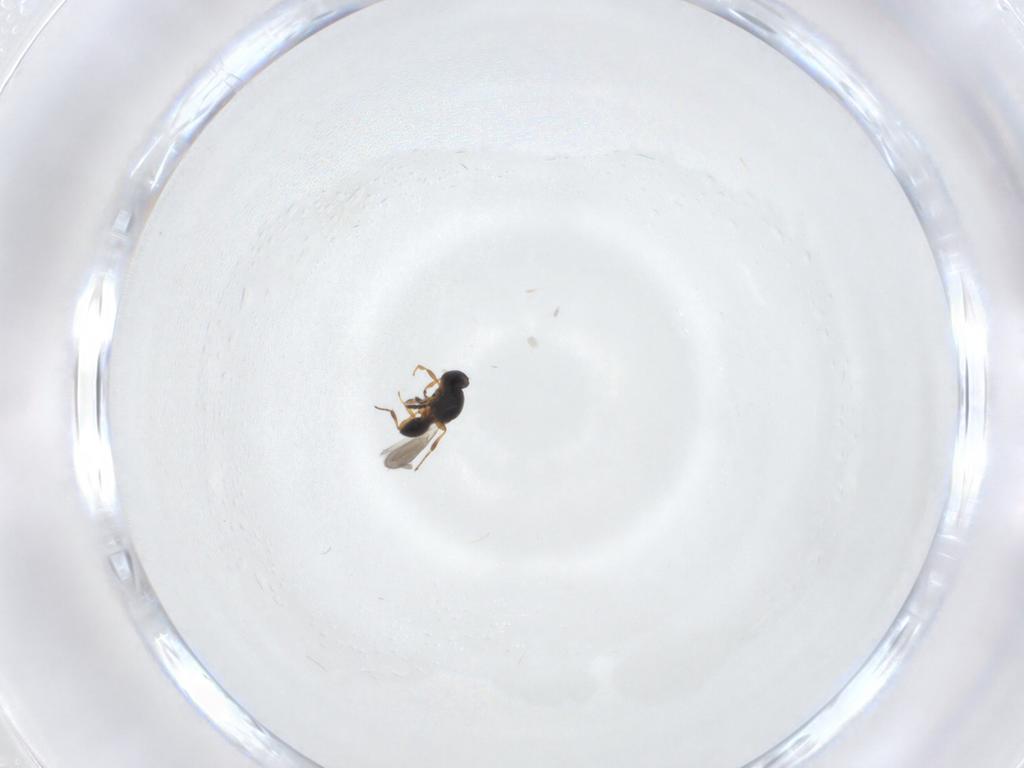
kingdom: Animalia
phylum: Arthropoda
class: Insecta
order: Hymenoptera
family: Platygastridae
